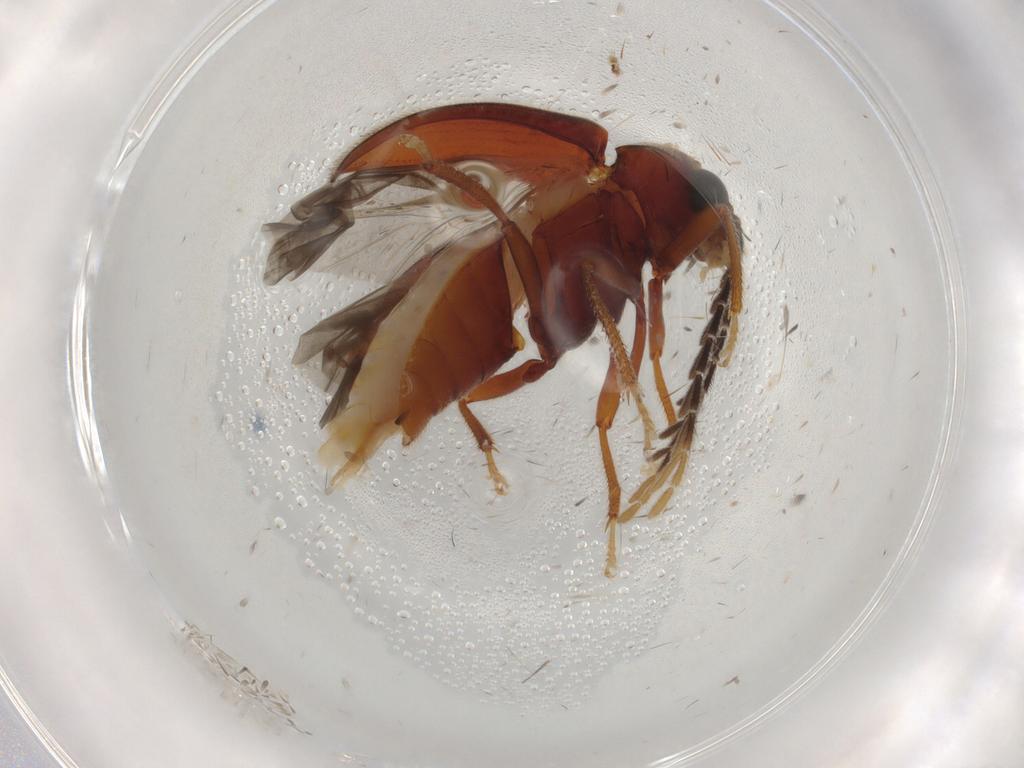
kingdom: Animalia
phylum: Arthropoda
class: Insecta
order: Coleoptera
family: Ptilodactylidae
